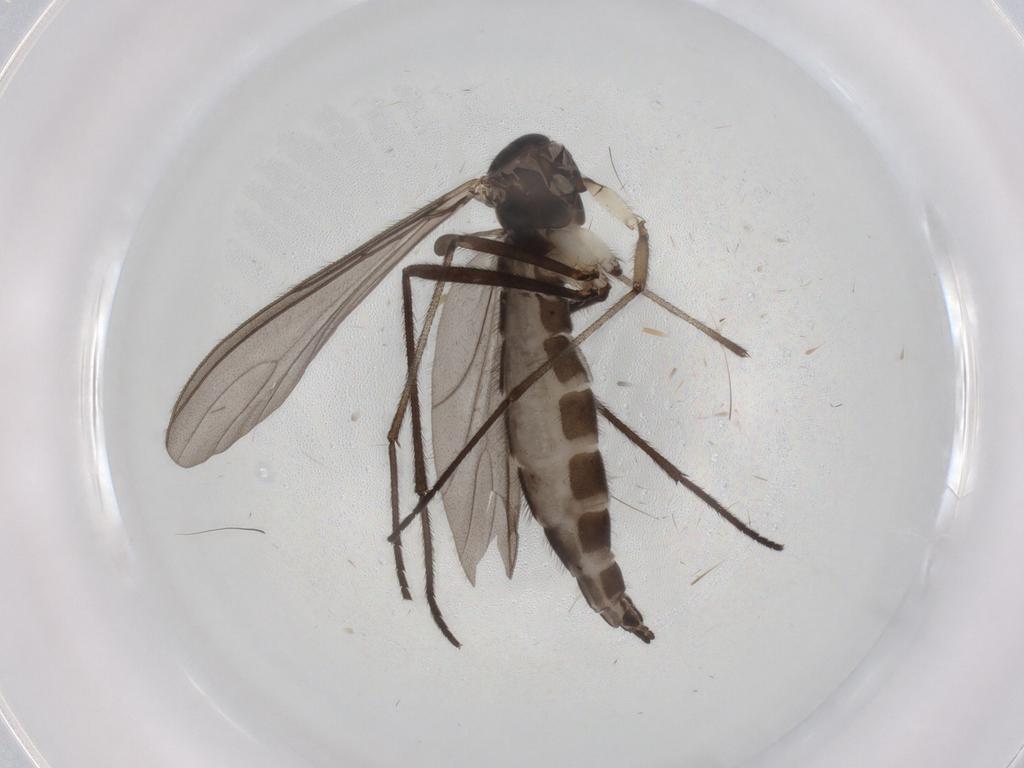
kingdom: Animalia
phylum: Arthropoda
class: Insecta
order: Diptera
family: Sciaridae
